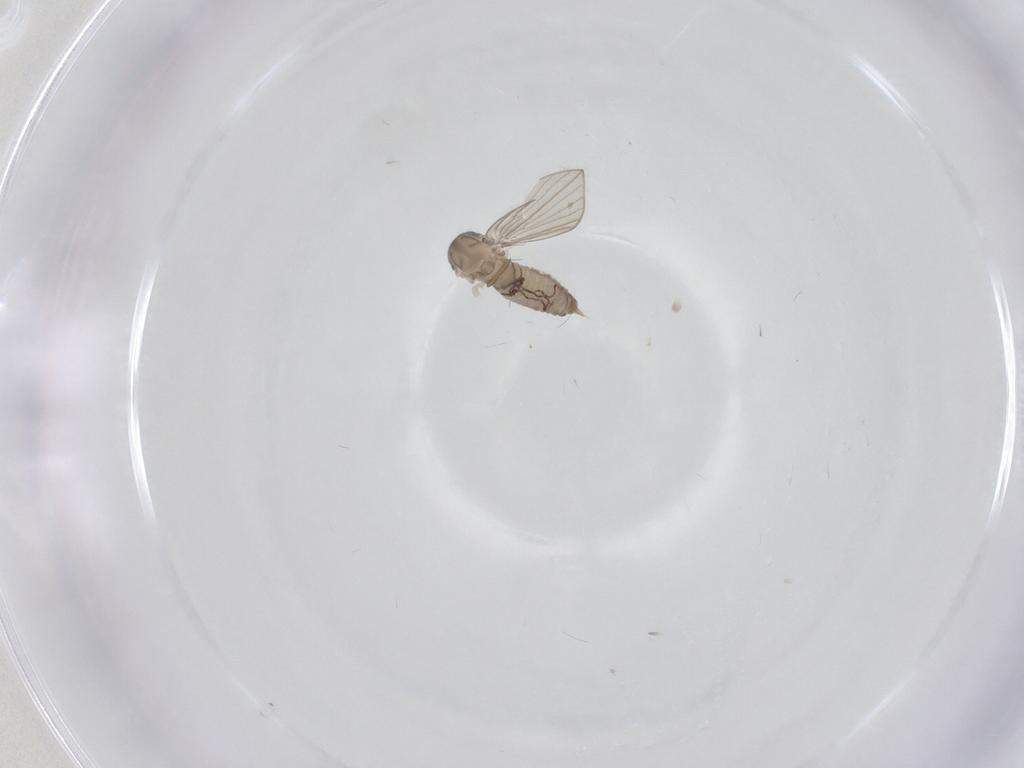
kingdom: Animalia
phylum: Arthropoda
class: Insecta
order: Diptera
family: Psychodidae
